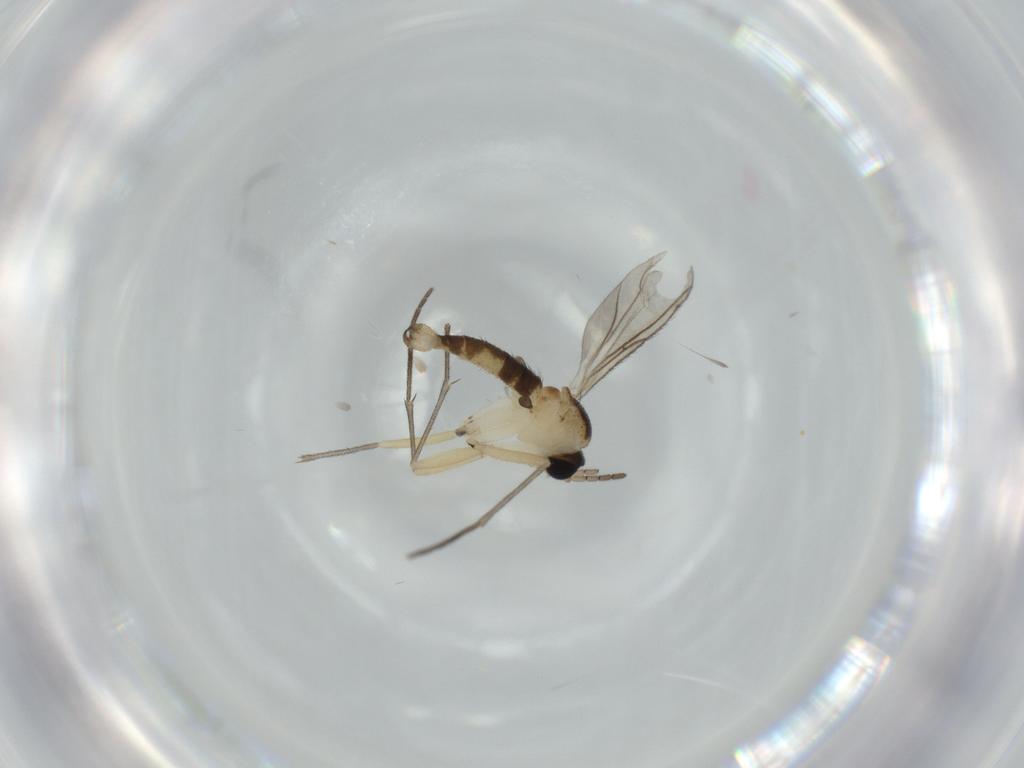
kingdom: Animalia
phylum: Arthropoda
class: Insecta
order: Diptera
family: Sciaridae
